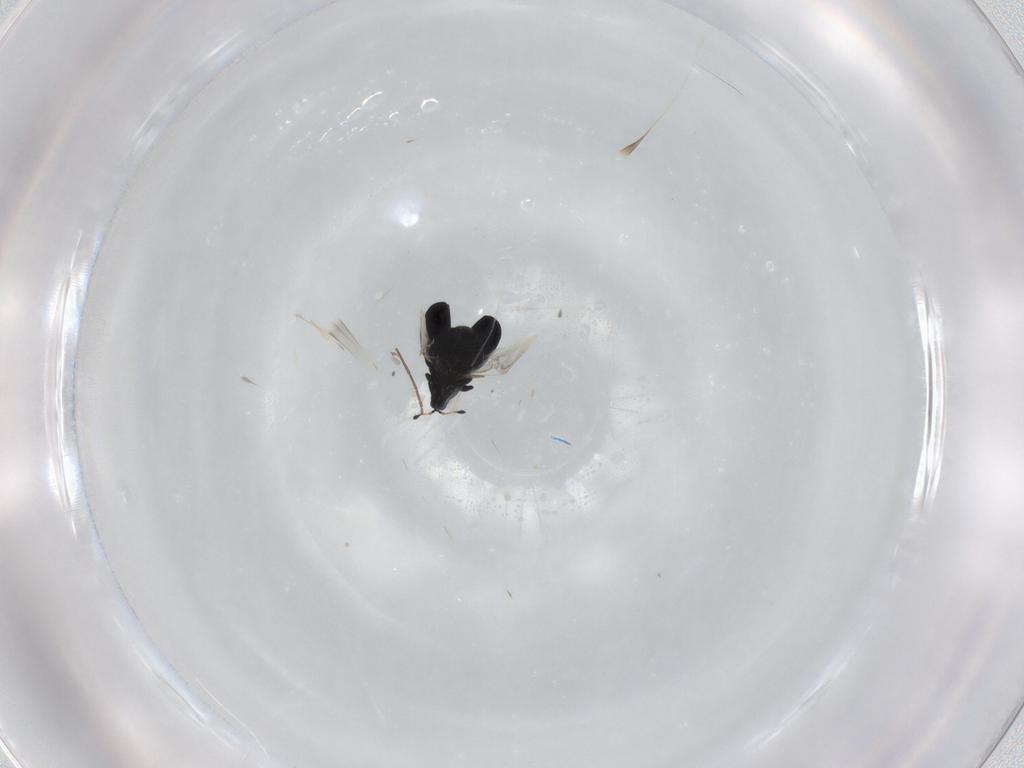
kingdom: Animalia
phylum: Arthropoda
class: Insecta
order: Coleoptera
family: Curculionidae
